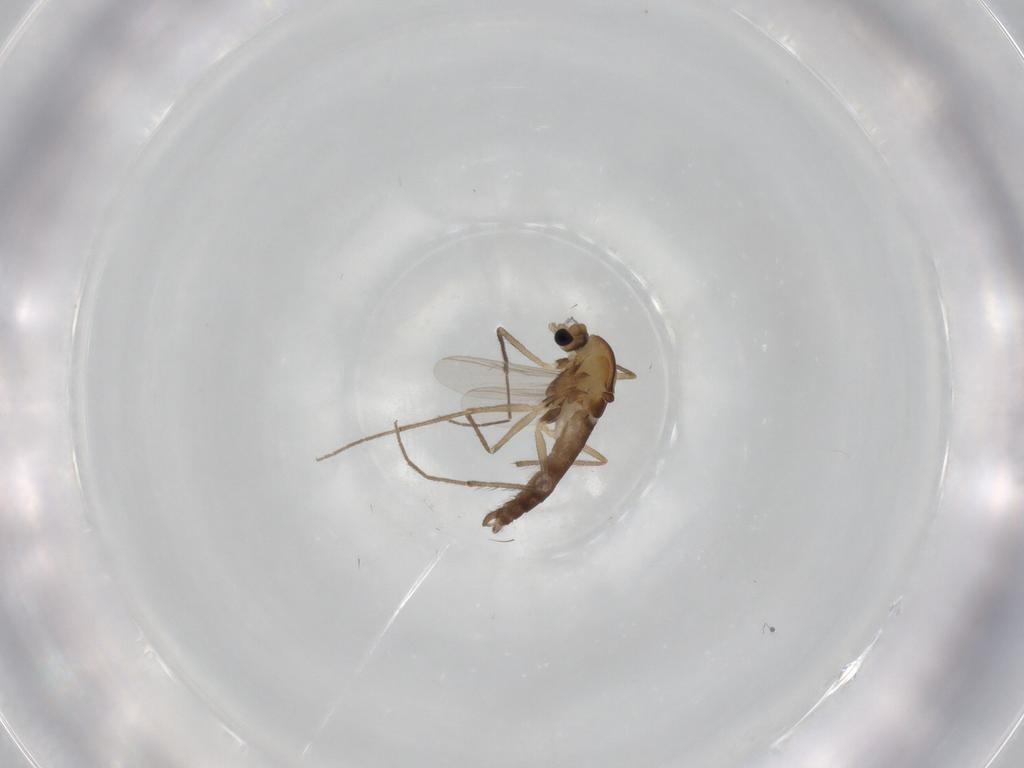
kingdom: Animalia
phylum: Arthropoda
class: Insecta
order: Diptera
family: Chironomidae
